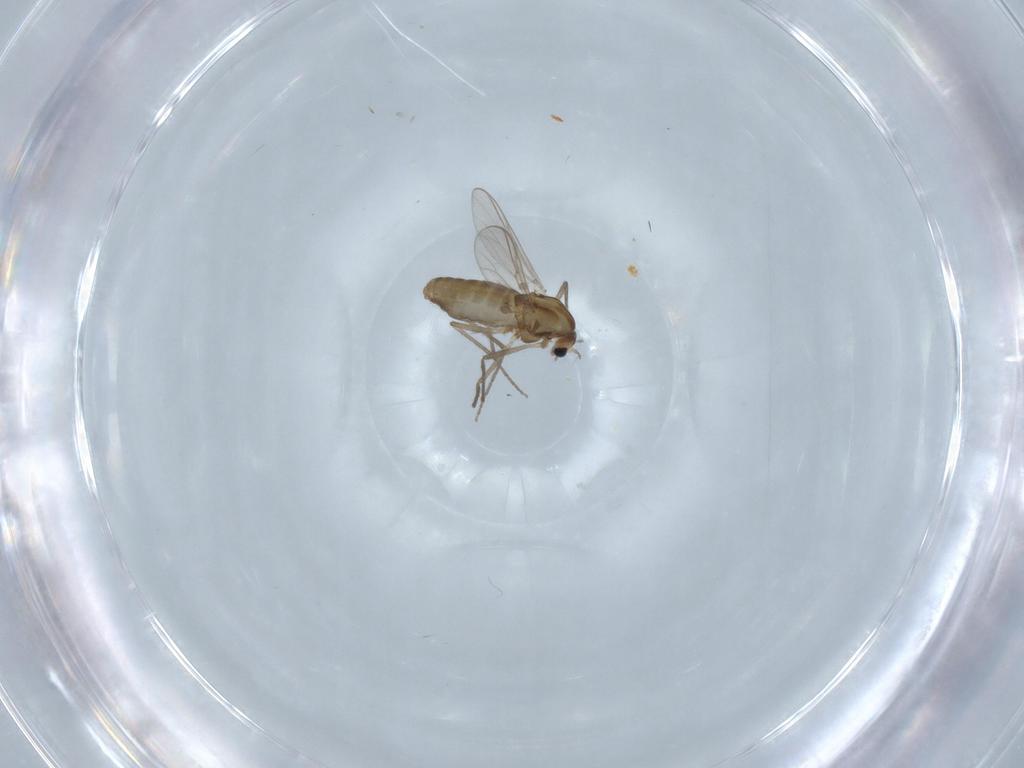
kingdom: Animalia
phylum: Arthropoda
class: Insecta
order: Diptera
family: Chironomidae
